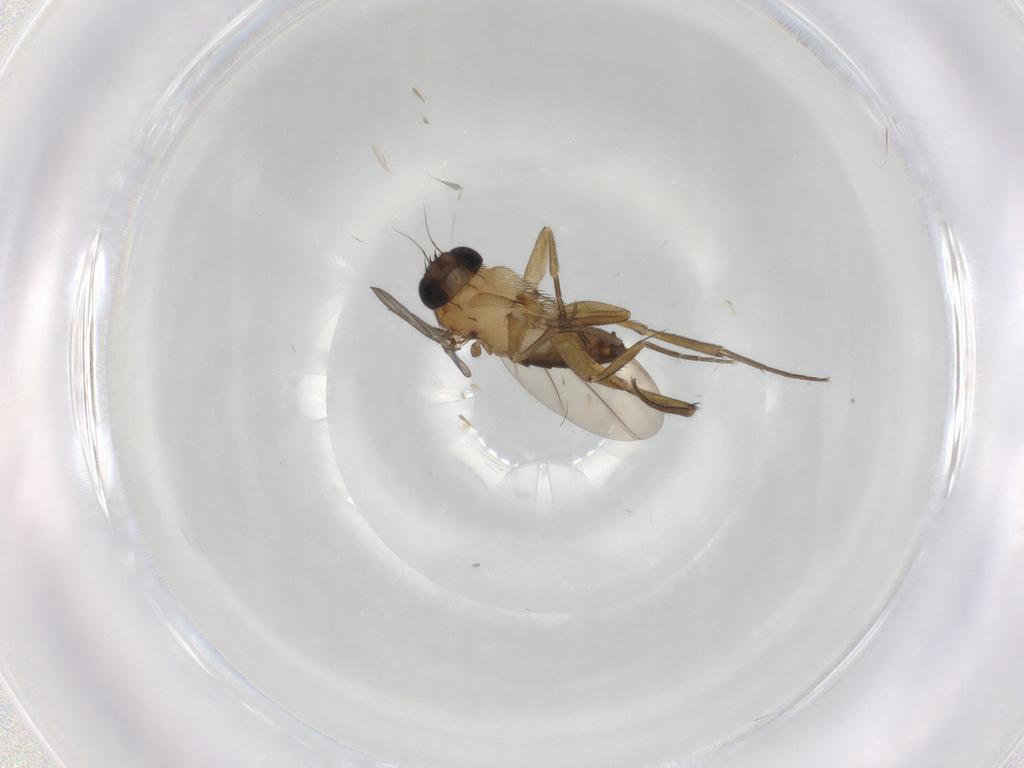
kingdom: Animalia
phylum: Arthropoda
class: Insecta
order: Diptera
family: Phoridae
